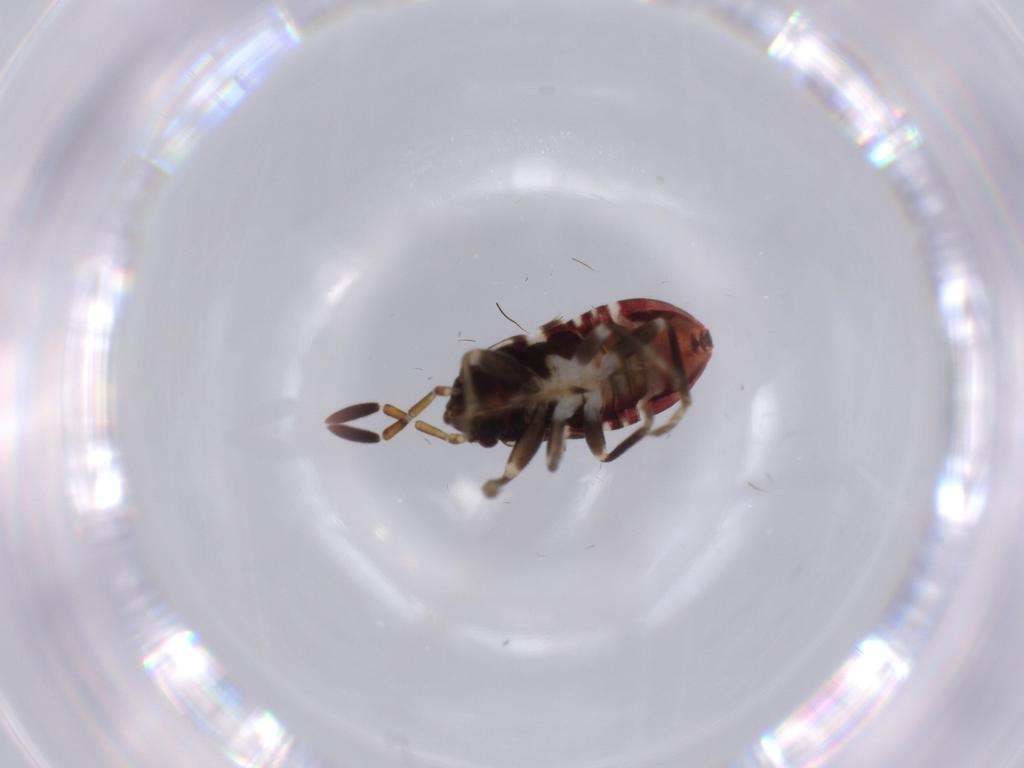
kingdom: Animalia
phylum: Arthropoda
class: Insecta
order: Hemiptera
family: Rhyparochromidae
